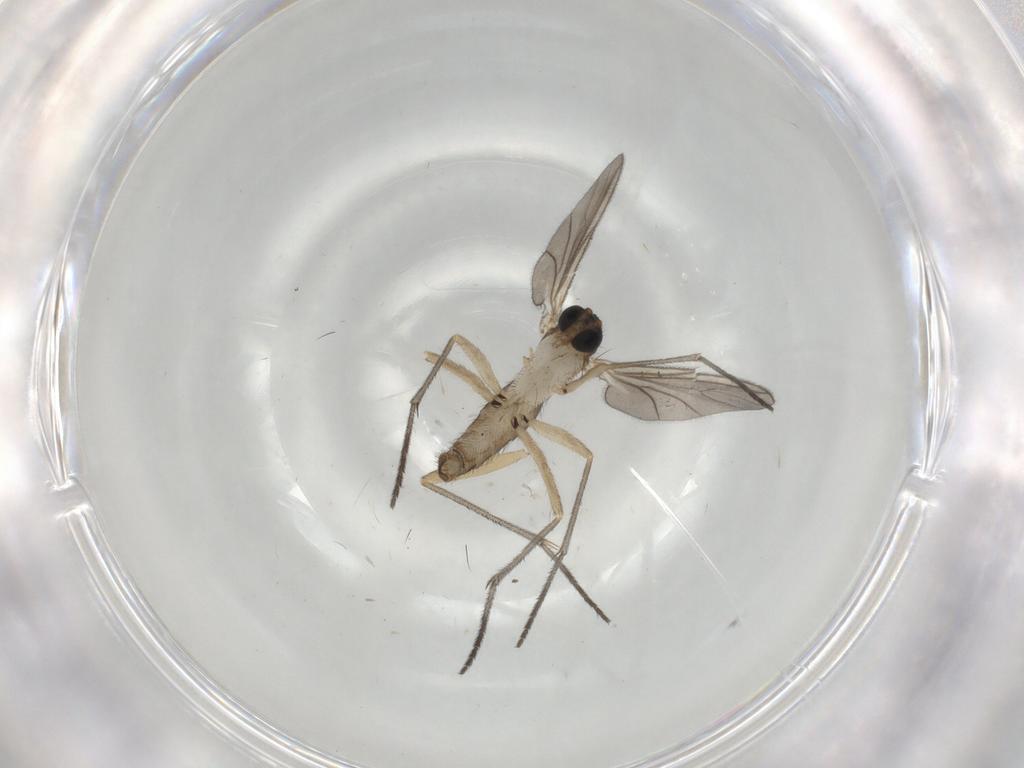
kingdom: Animalia
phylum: Arthropoda
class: Insecta
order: Diptera
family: Sciaridae
